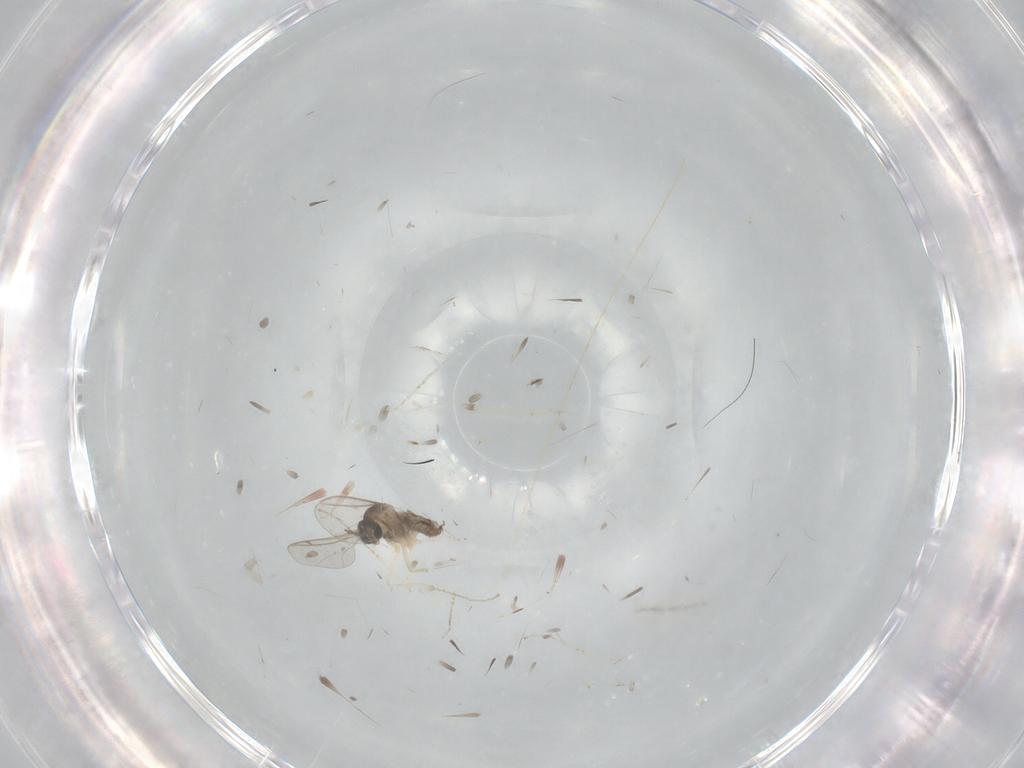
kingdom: Animalia
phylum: Arthropoda
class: Insecta
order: Diptera
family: Cecidomyiidae
